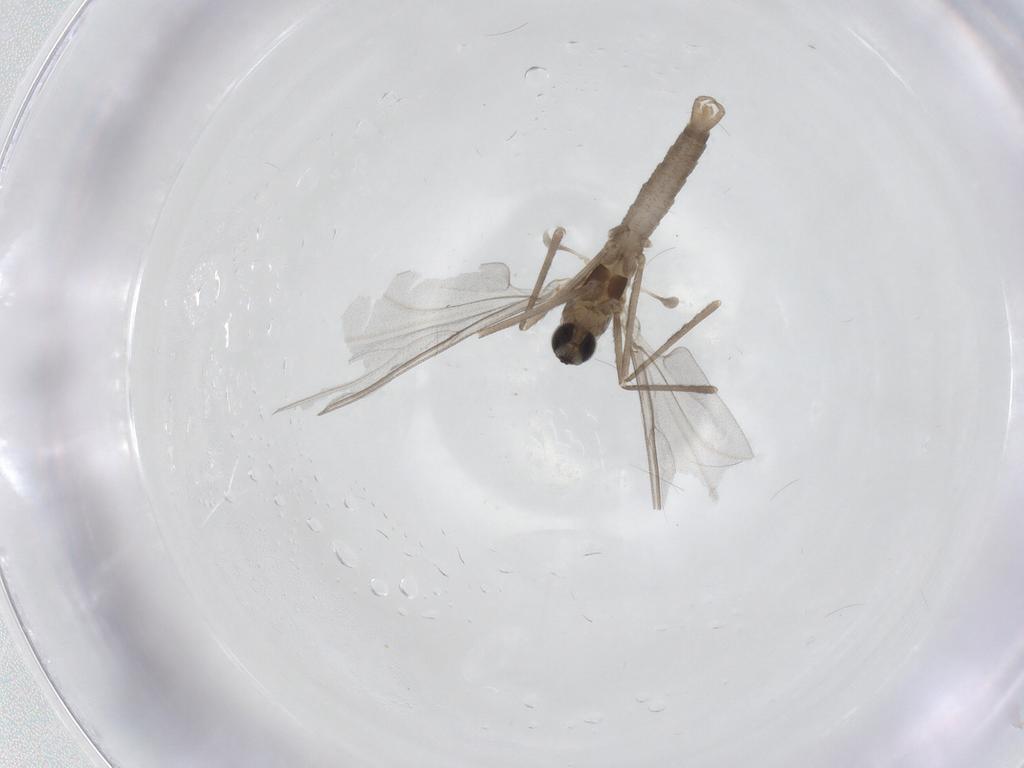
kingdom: Animalia
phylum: Arthropoda
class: Insecta
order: Diptera
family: Cecidomyiidae
